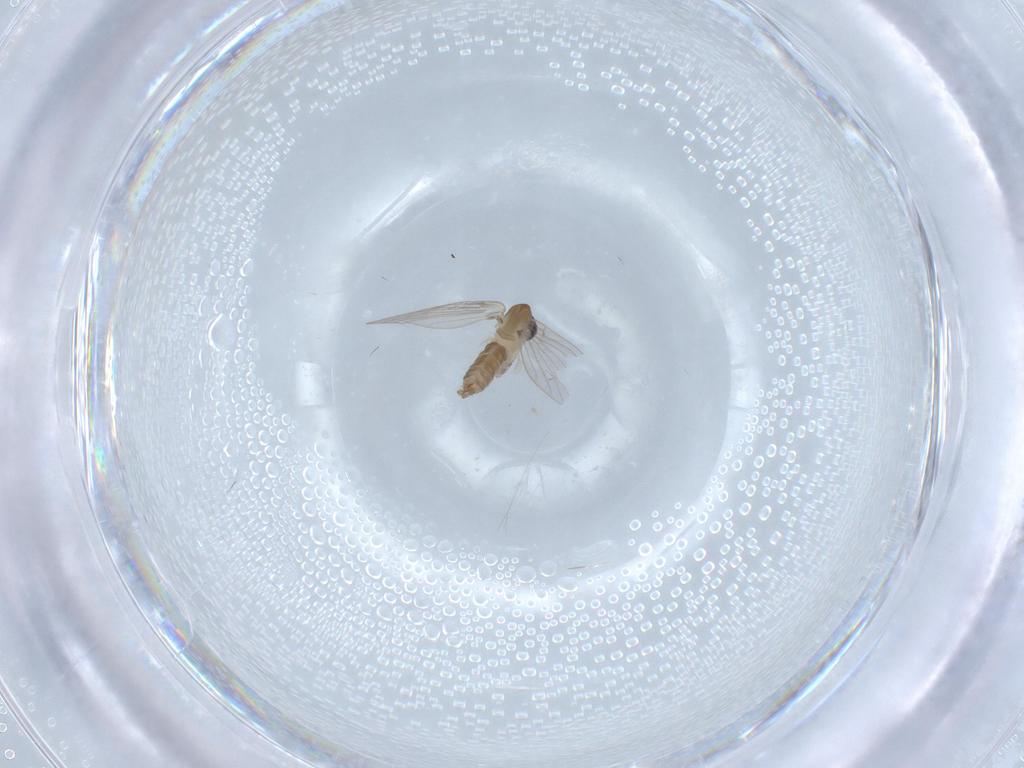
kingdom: Animalia
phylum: Arthropoda
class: Insecta
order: Diptera
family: Psychodidae
